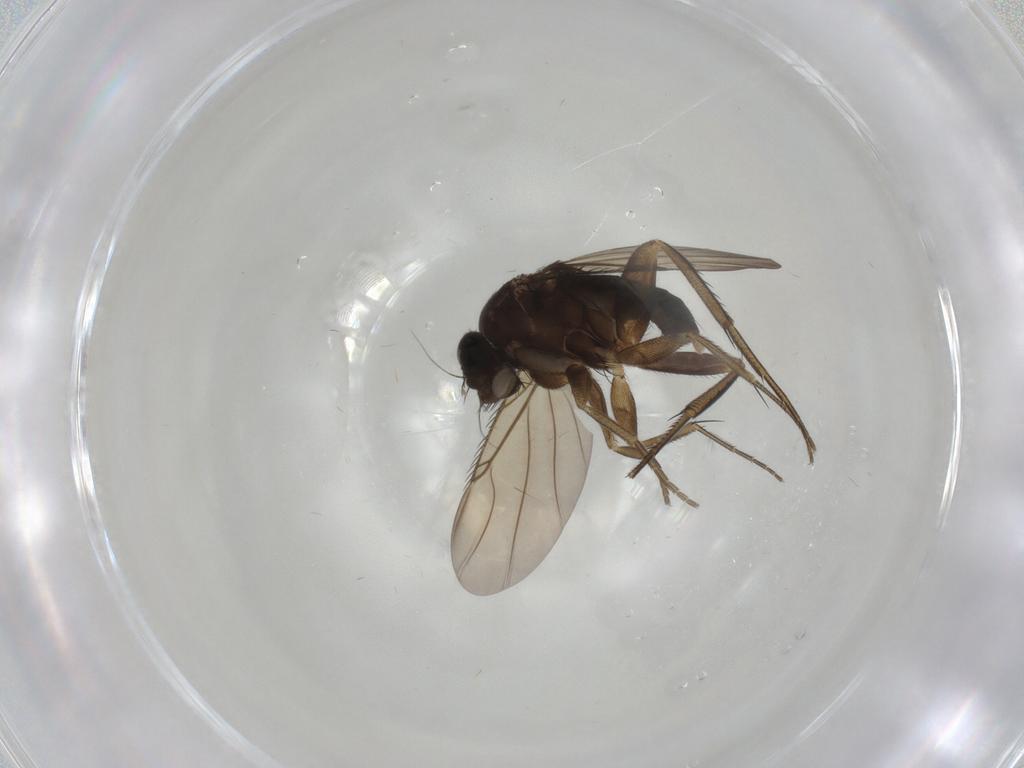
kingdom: Animalia
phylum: Arthropoda
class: Insecta
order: Diptera
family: Phoridae
